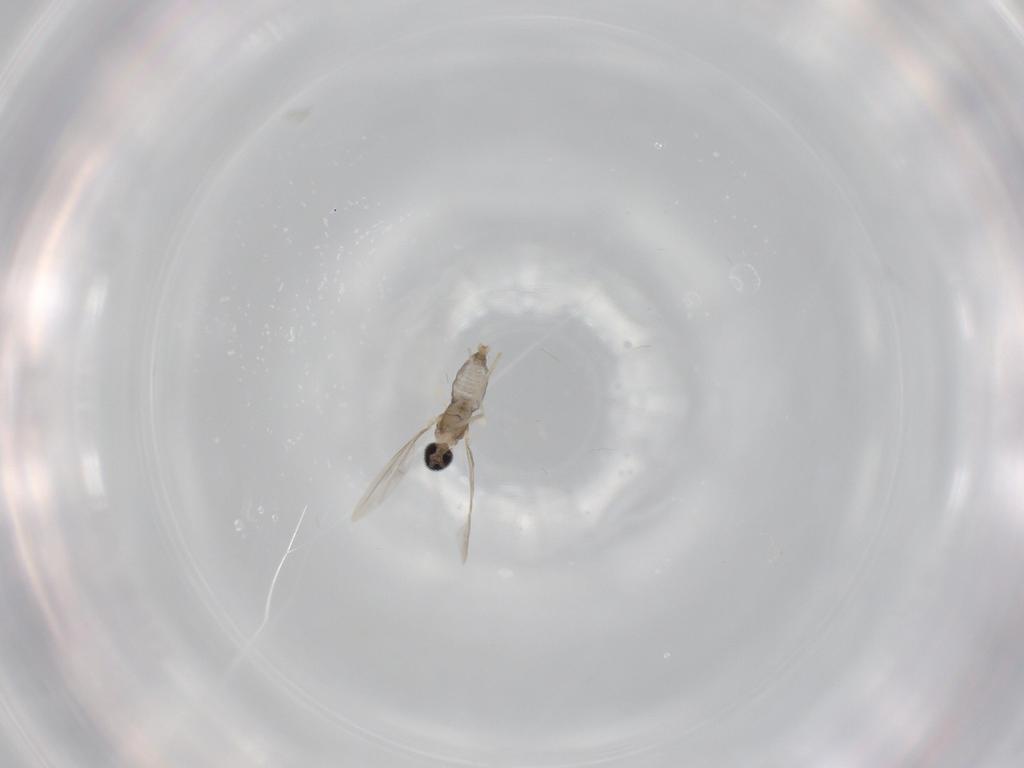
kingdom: Animalia
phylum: Arthropoda
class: Insecta
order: Diptera
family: Cecidomyiidae
